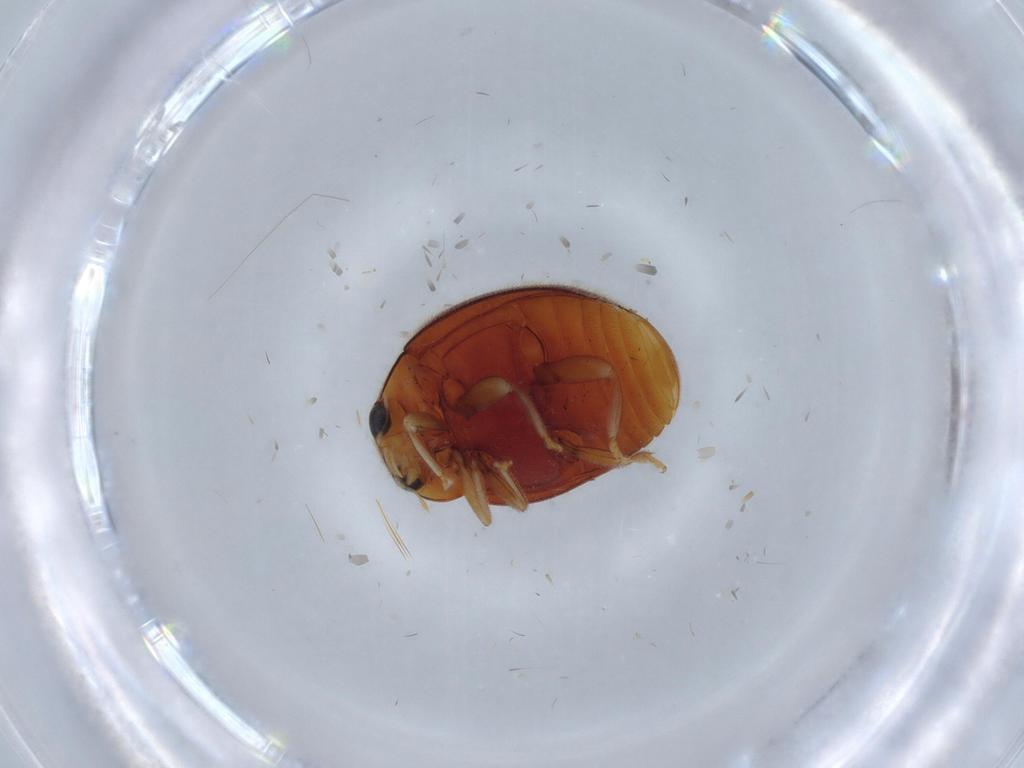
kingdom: Animalia
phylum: Arthropoda
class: Insecta
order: Coleoptera
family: Coccinellidae
